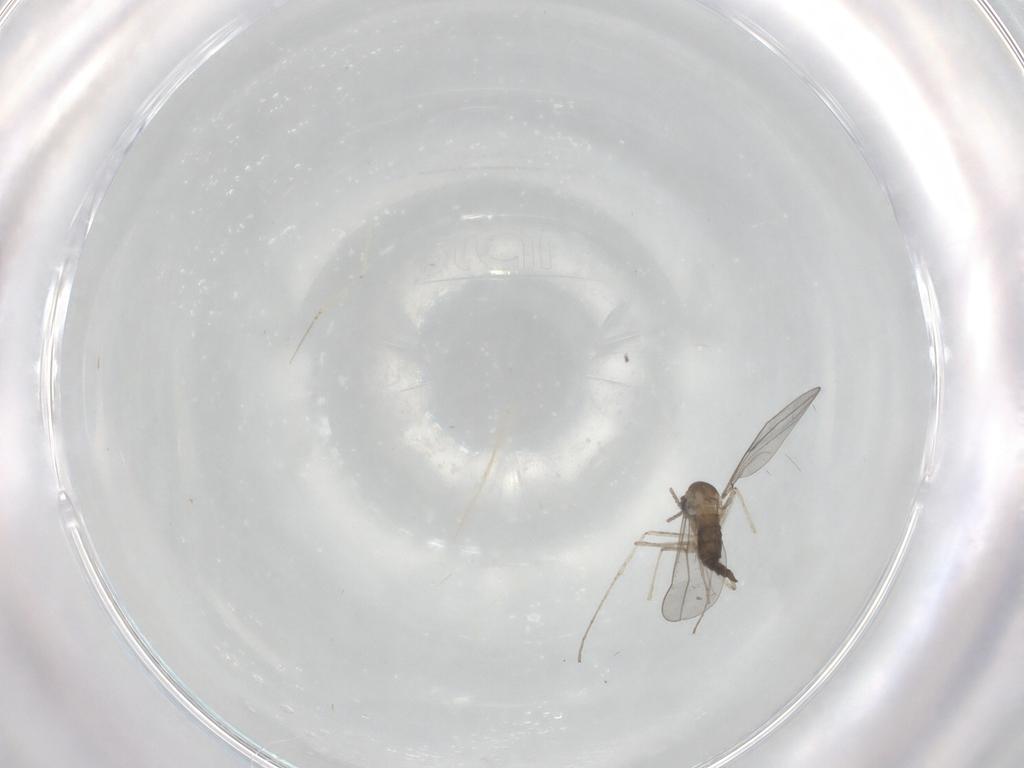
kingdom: Animalia
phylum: Arthropoda
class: Insecta
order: Diptera
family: Cecidomyiidae
